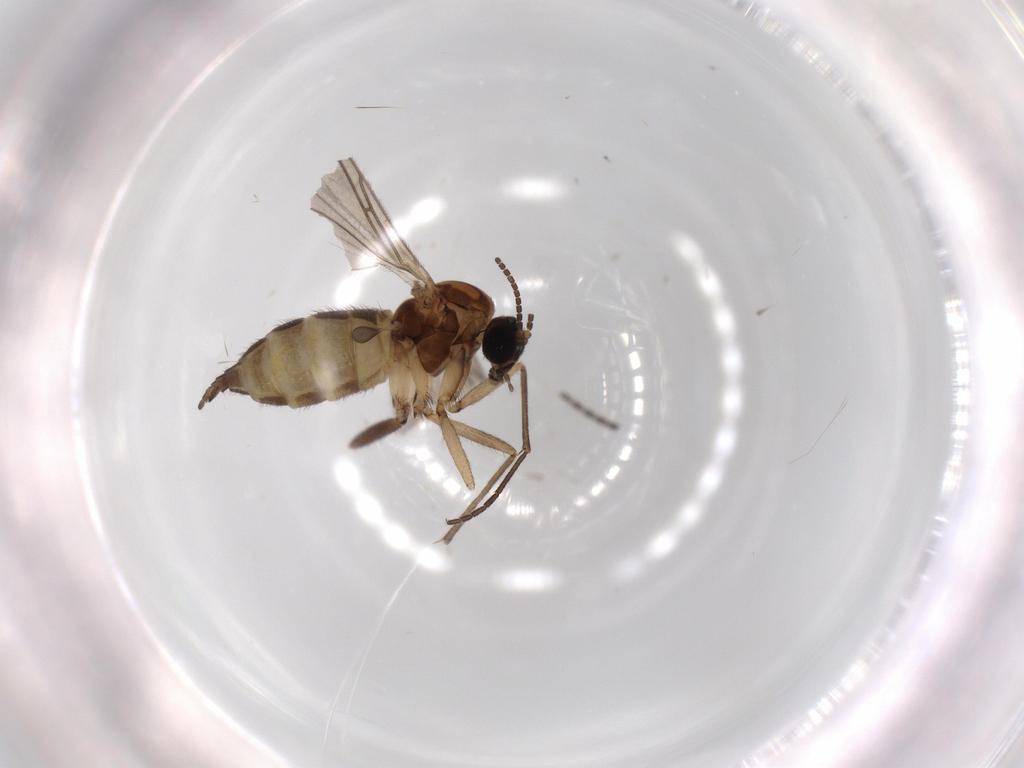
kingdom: Animalia
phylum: Arthropoda
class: Insecta
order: Diptera
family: Sciaridae
